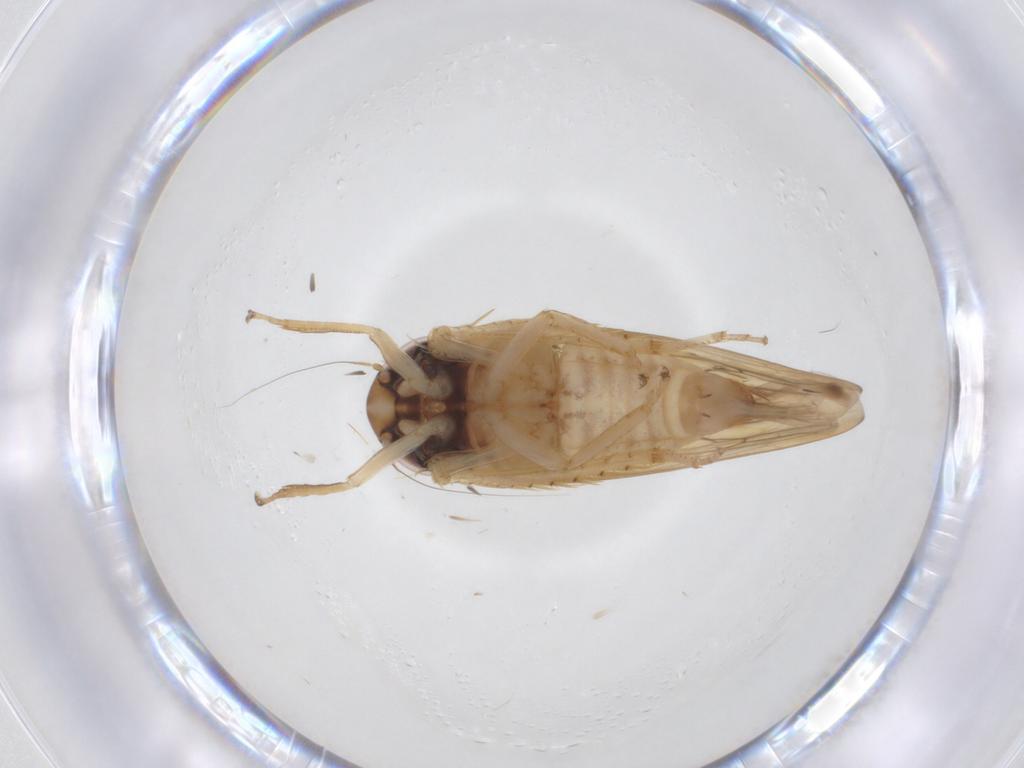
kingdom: Animalia
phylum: Arthropoda
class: Insecta
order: Hemiptera
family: Cicadellidae
